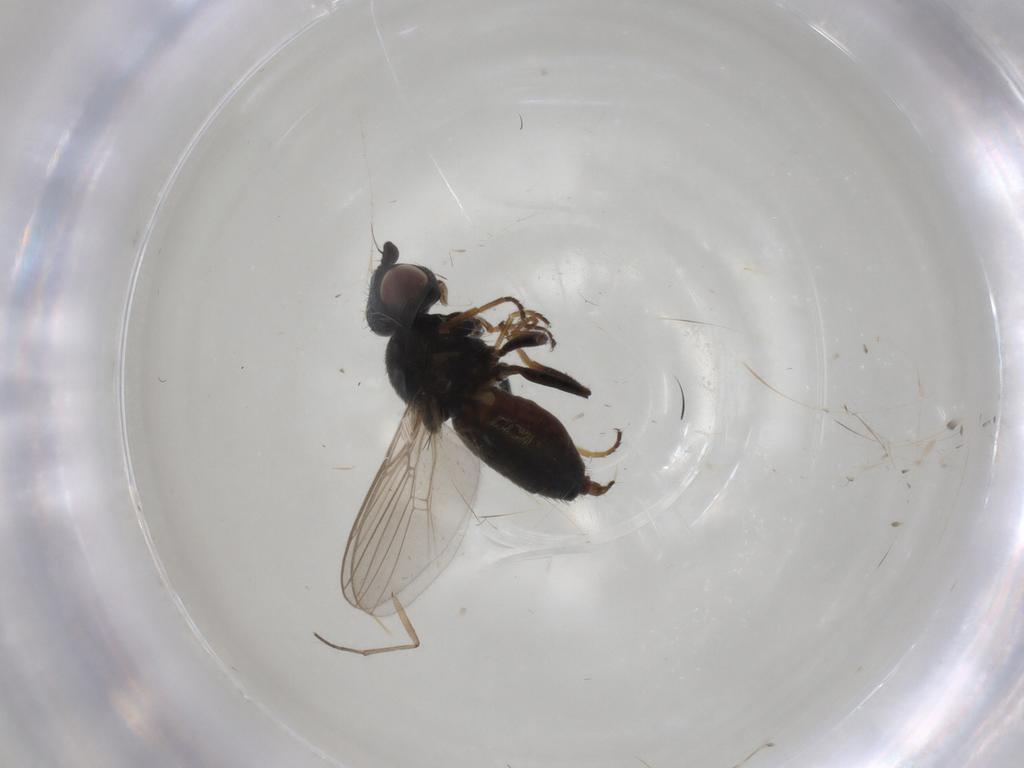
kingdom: Animalia
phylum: Arthropoda
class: Insecta
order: Diptera
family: Chloropidae
